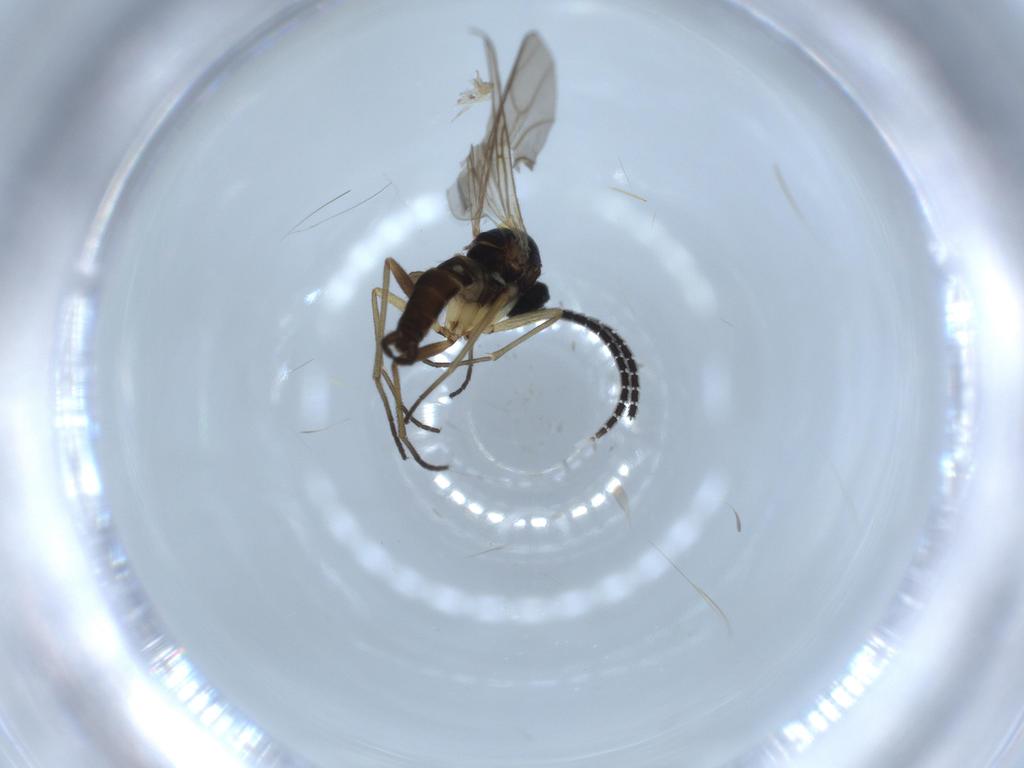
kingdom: Animalia
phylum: Arthropoda
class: Insecta
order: Diptera
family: Sciaridae
